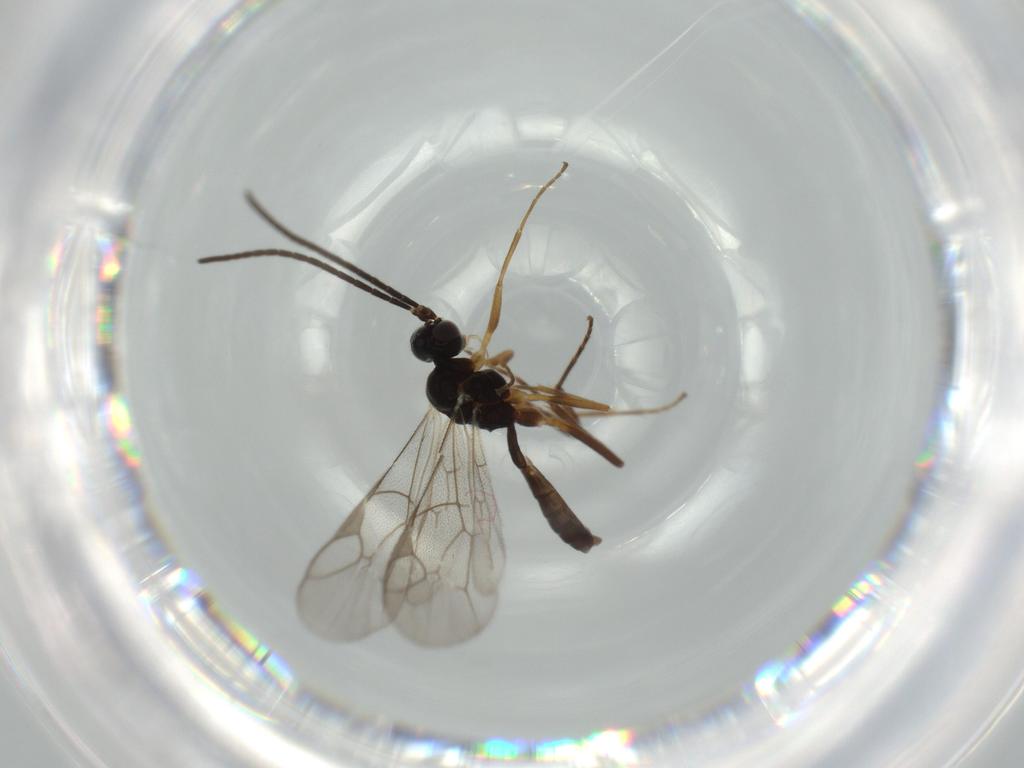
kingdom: Animalia
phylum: Arthropoda
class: Insecta
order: Hymenoptera
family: Ichneumonidae
